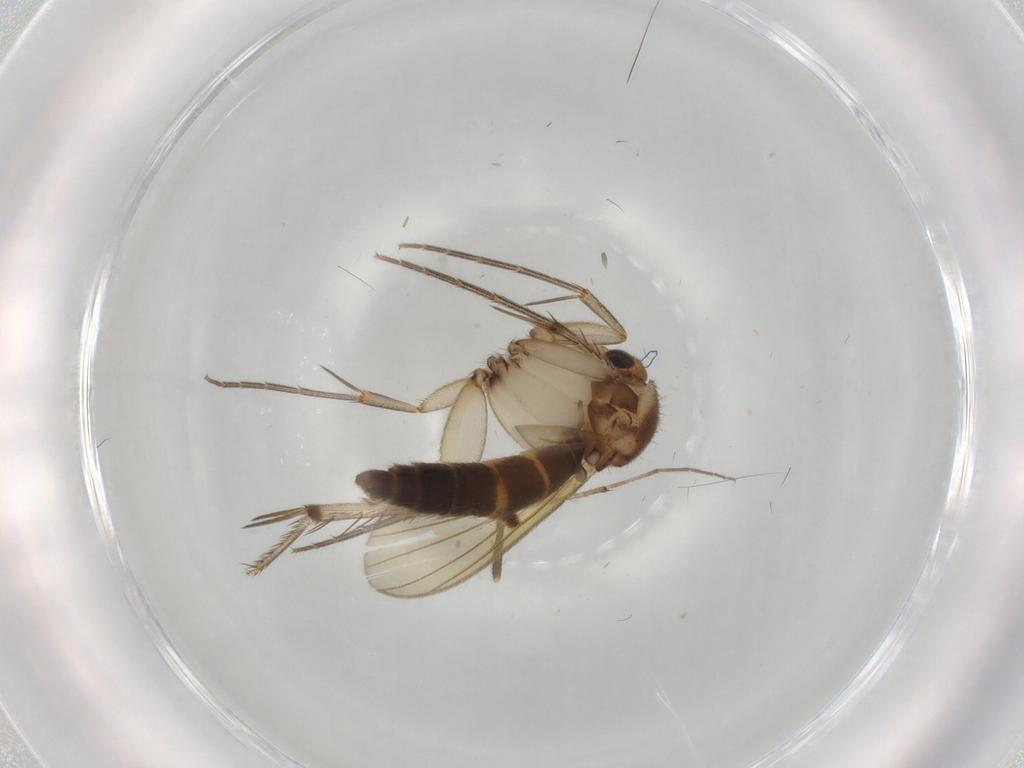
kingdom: Animalia
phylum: Arthropoda
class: Insecta
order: Diptera
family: Mycetophilidae
